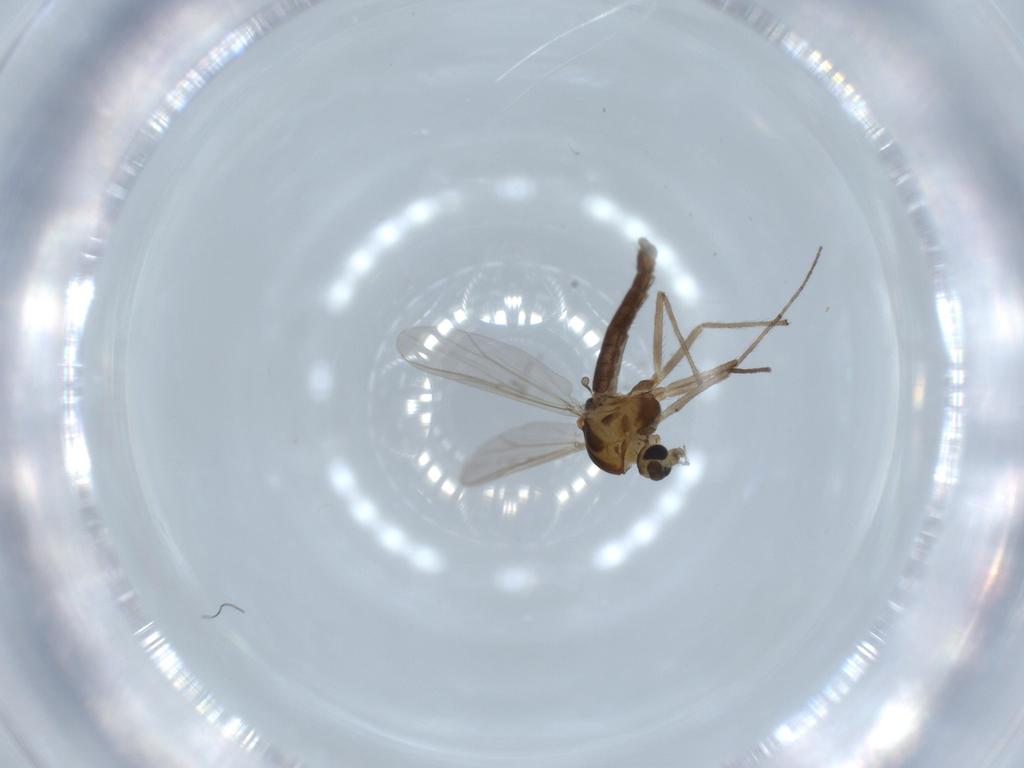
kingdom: Animalia
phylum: Arthropoda
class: Insecta
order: Diptera
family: Chironomidae
